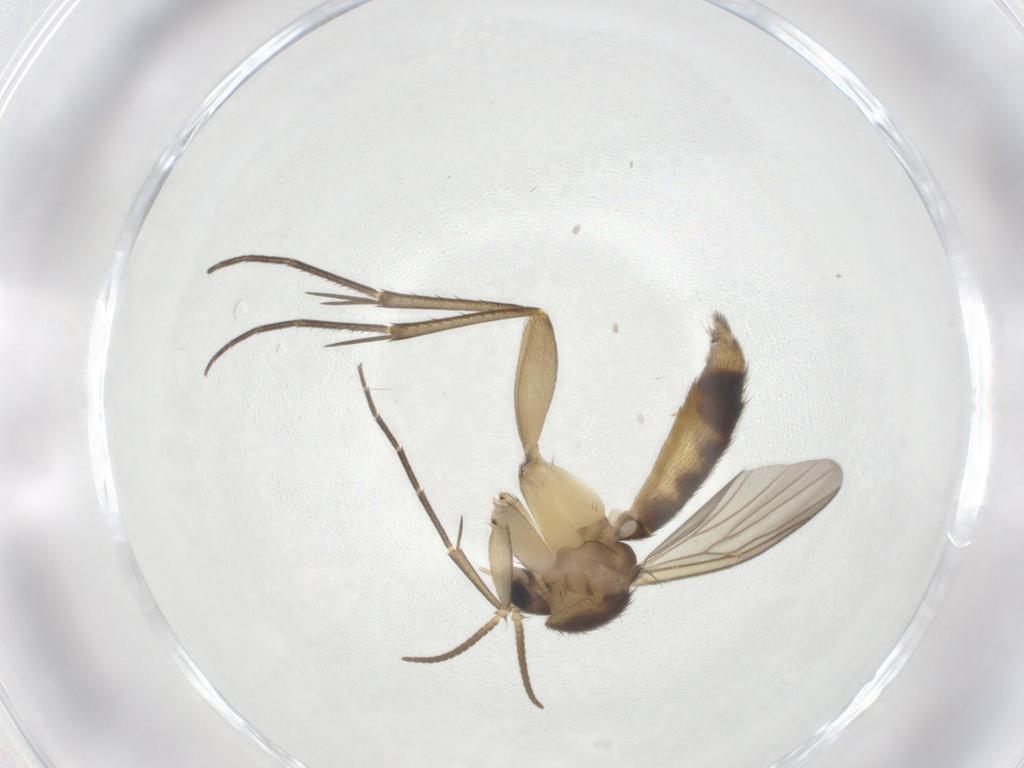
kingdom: Animalia
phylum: Arthropoda
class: Insecta
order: Diptera
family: Mycetophilidae
